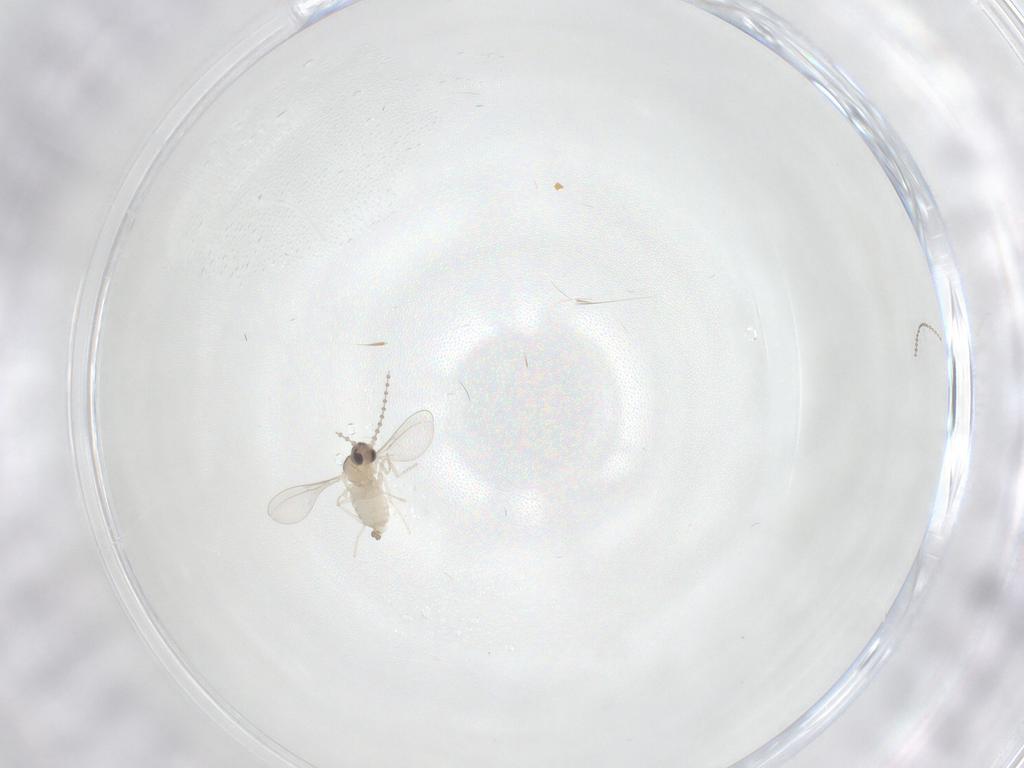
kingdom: Animalia
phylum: Arthropoda
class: Insecta
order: Diptera
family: Cecidomyiidae
